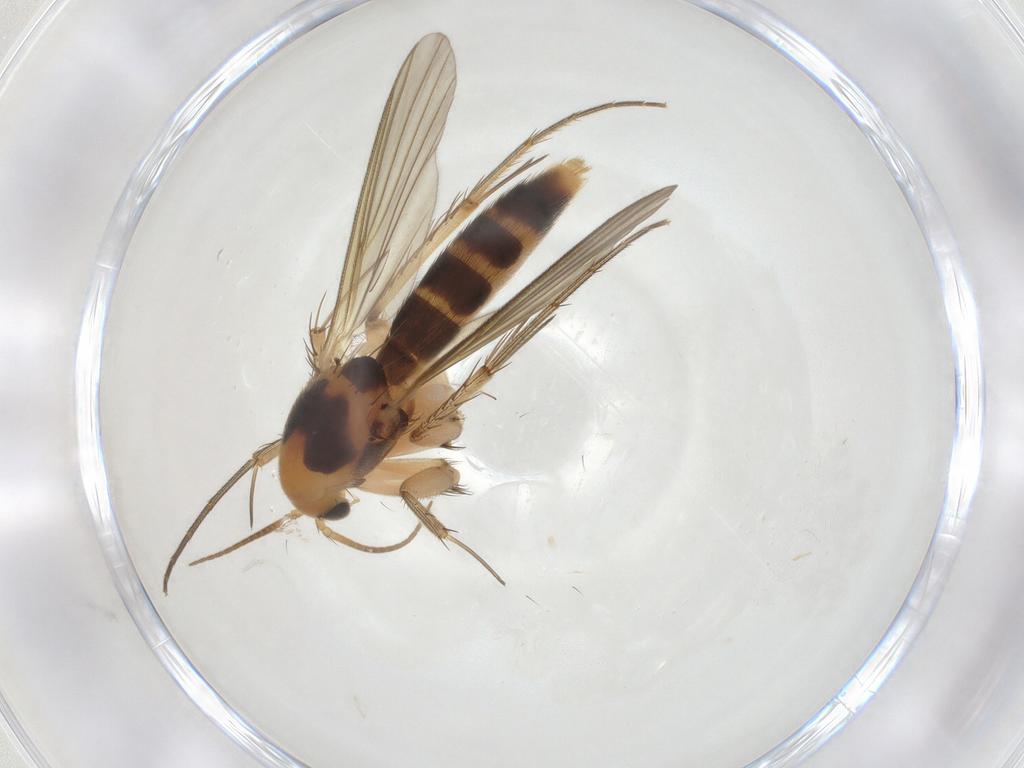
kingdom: Animalia
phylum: Arthropoda
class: Insecta
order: Diptera
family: Mycetophilidae
